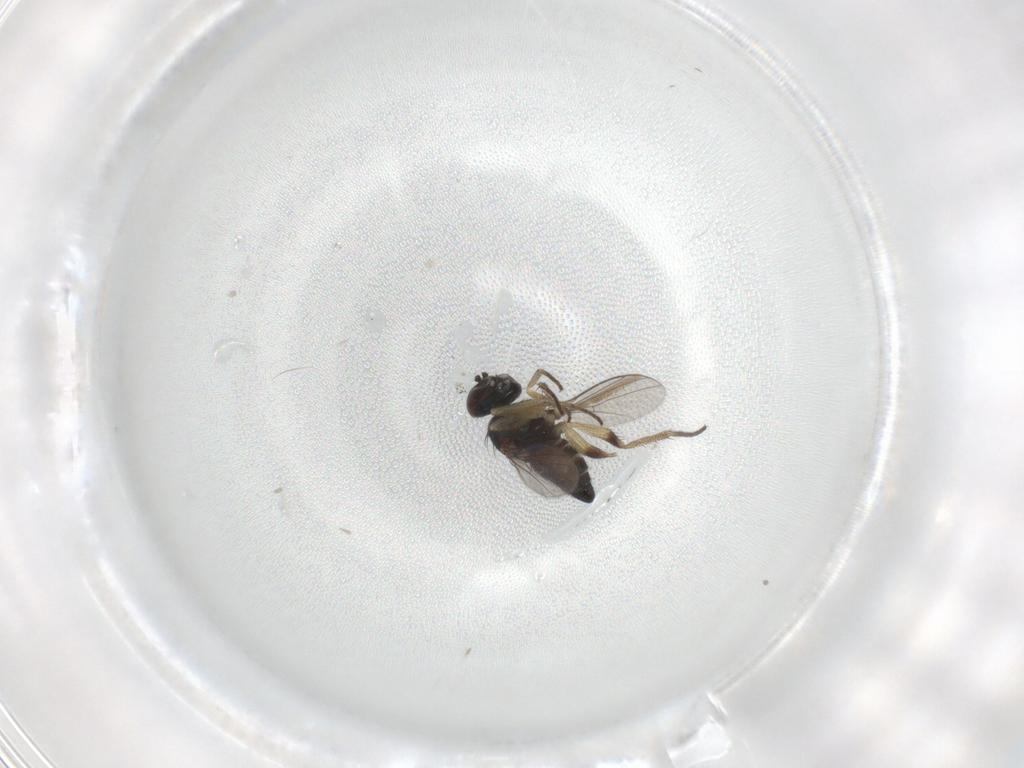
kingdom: Animalia
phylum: Arthropoda
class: Insecta
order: Diptera
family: Dolichopodidae
